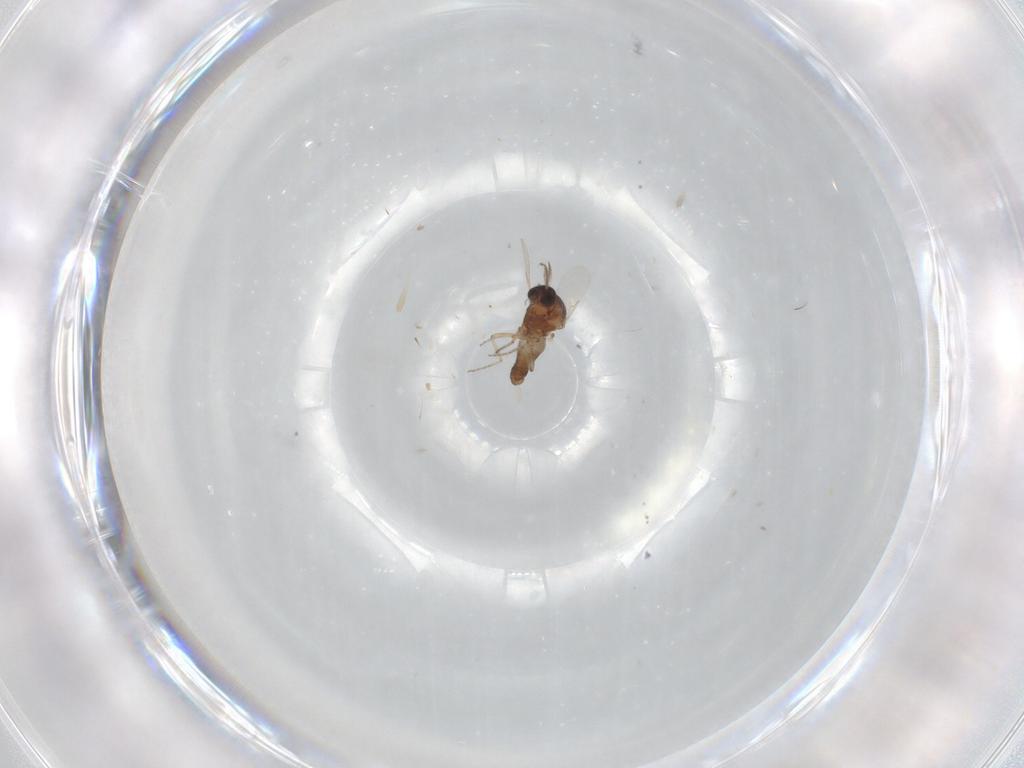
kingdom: Animalia
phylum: Arthropoda
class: Insecta
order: Diptera
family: Ceratopogonidae
